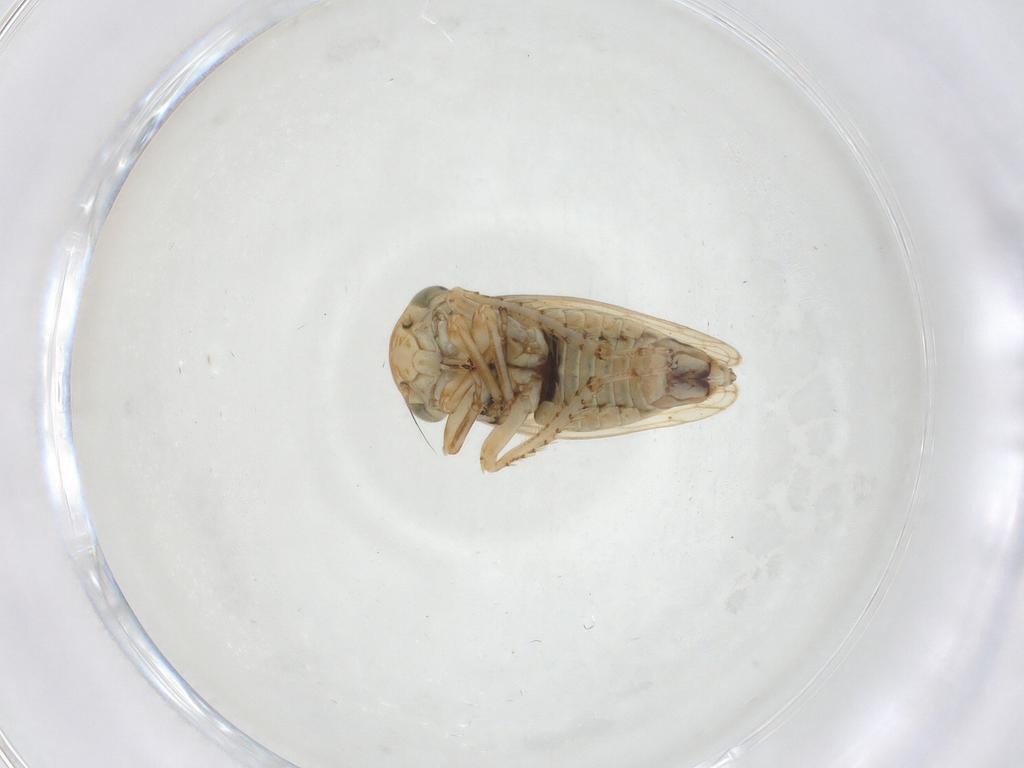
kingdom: Animalia
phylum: Arthropoda
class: Insecta
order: Hemiptera
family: Cicadellidae
